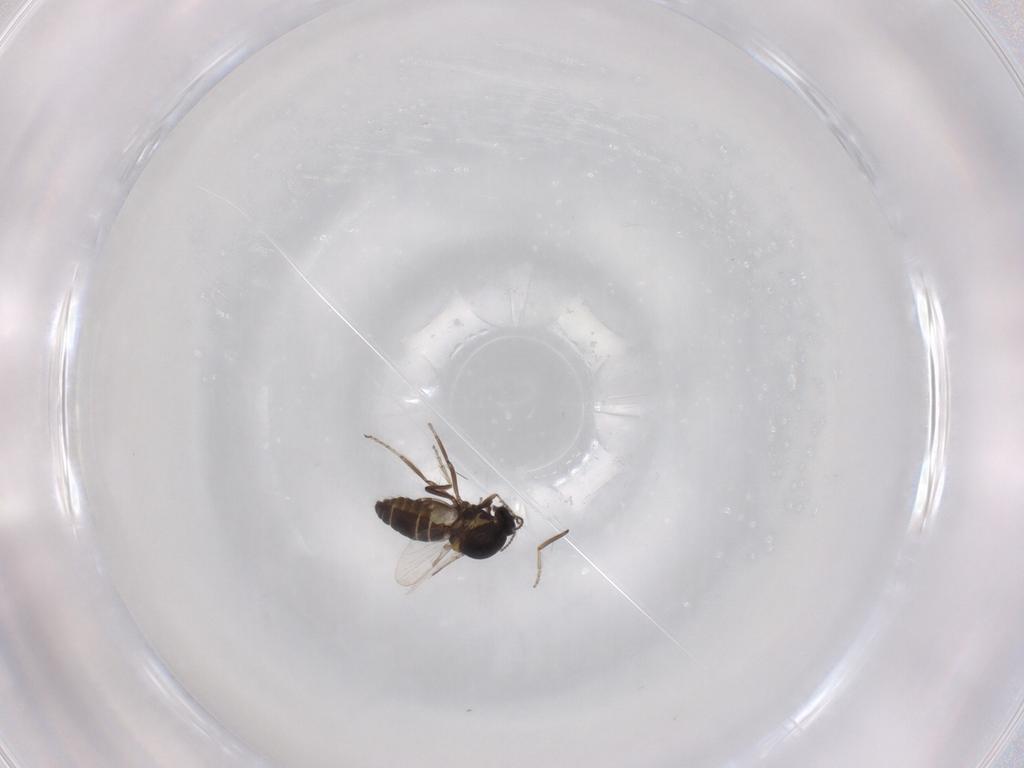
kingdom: Animalia
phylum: Arthropoda
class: Insecta
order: Diptera
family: Ceratopogonidae
